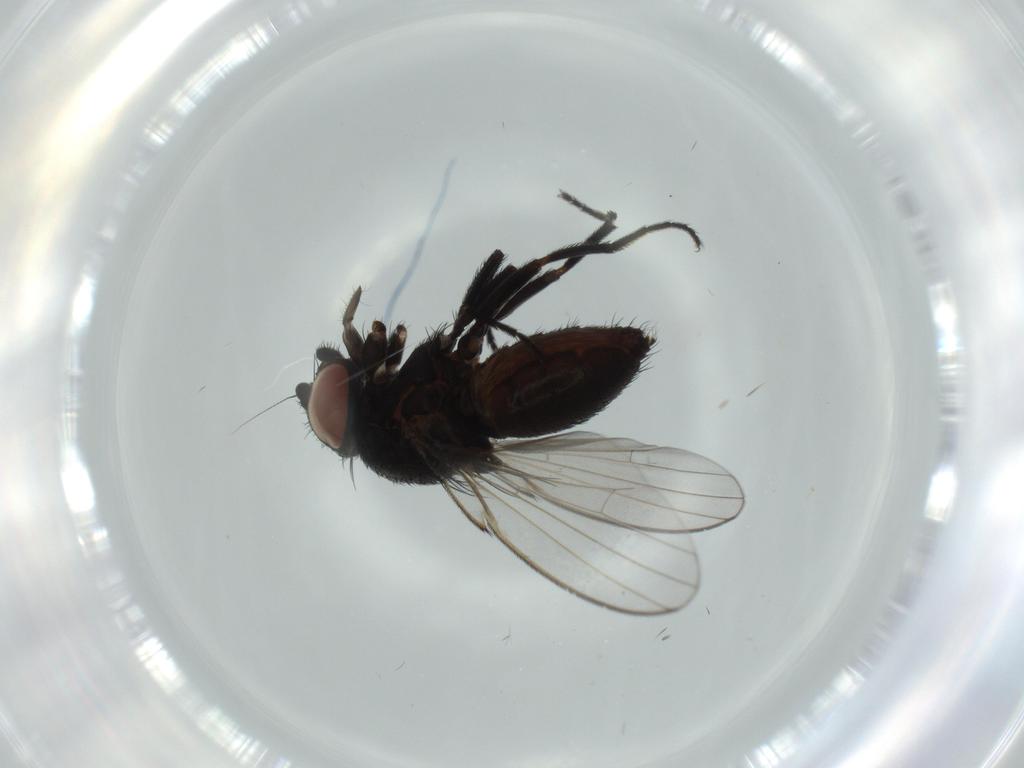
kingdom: Animalia
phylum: Arthropoda
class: Insecta
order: Diptera
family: Milichiidae
